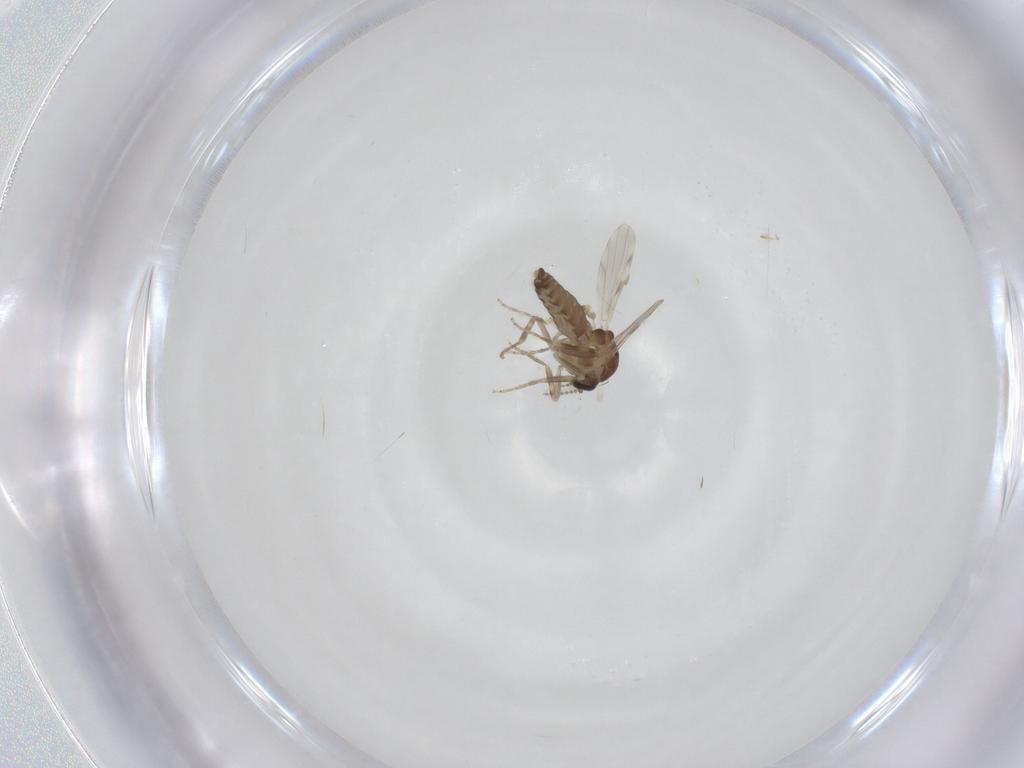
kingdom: Animalia
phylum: Arthropoda
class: Insecta
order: Diptera
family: Ceratopogonidae
